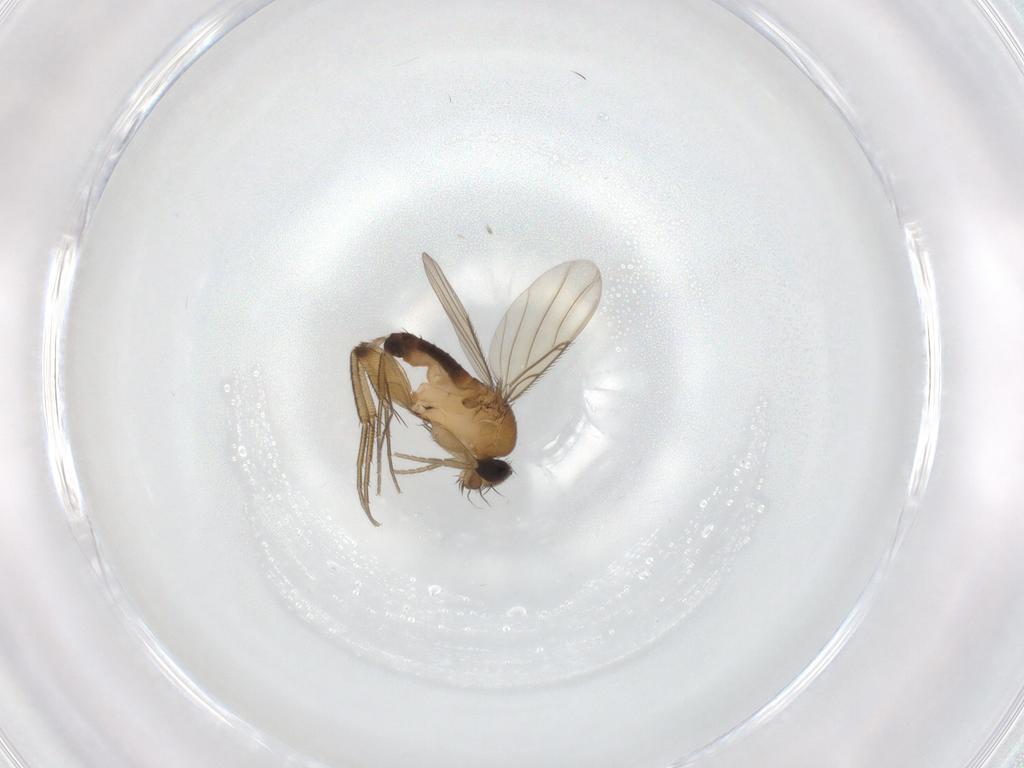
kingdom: Animalia
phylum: Arthropoda
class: Insecta
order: Diptera
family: Phoridae
